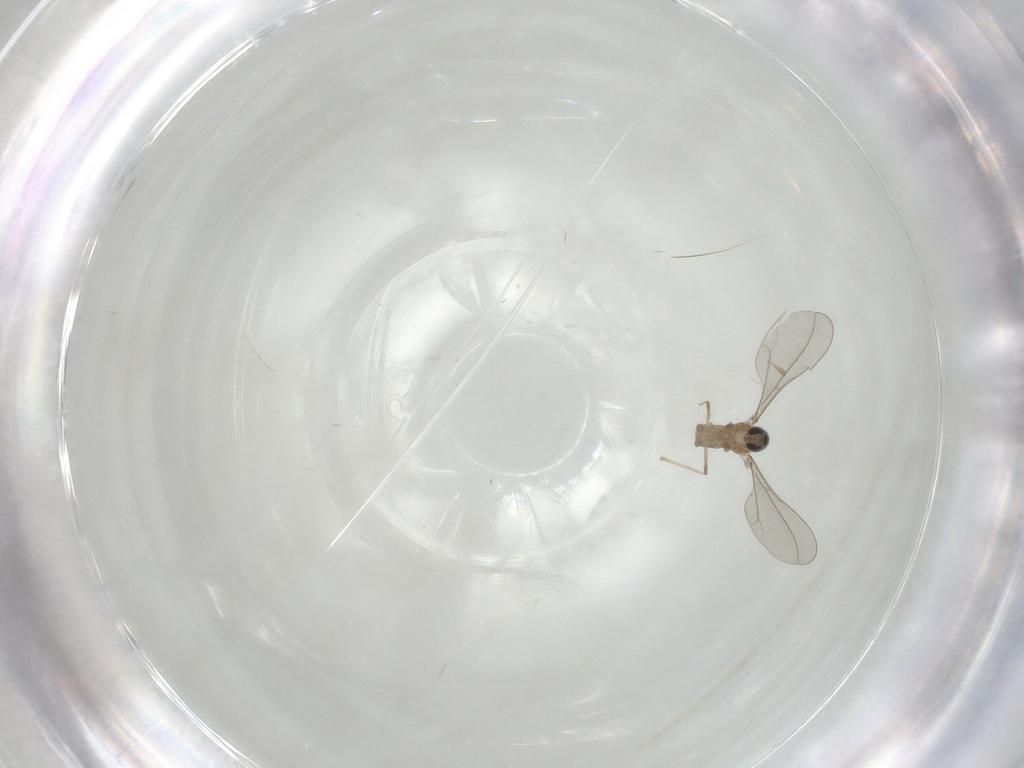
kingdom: Animalia
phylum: Arthropoda
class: Insecta
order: Diptera
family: Cecidomyiidae
